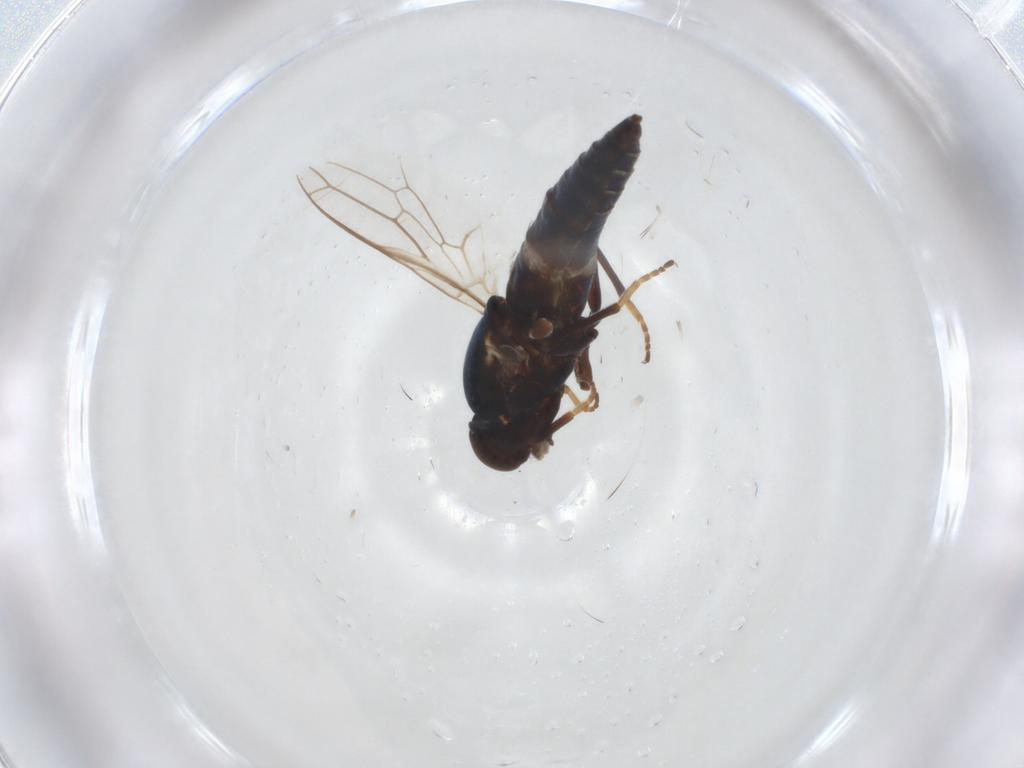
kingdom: Animalia
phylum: Arthropoda
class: Insecta
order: Diptera
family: Scenopinidae
